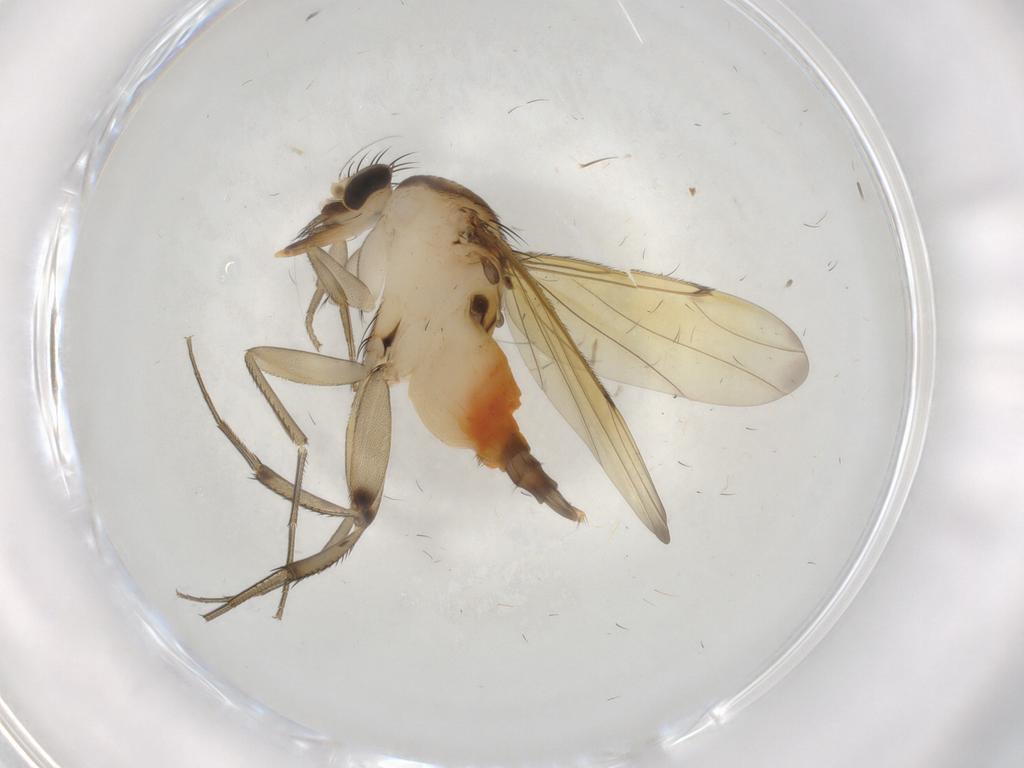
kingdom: Animalia
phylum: Arthropoda
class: Insecta
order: Diptera
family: Phoridae
